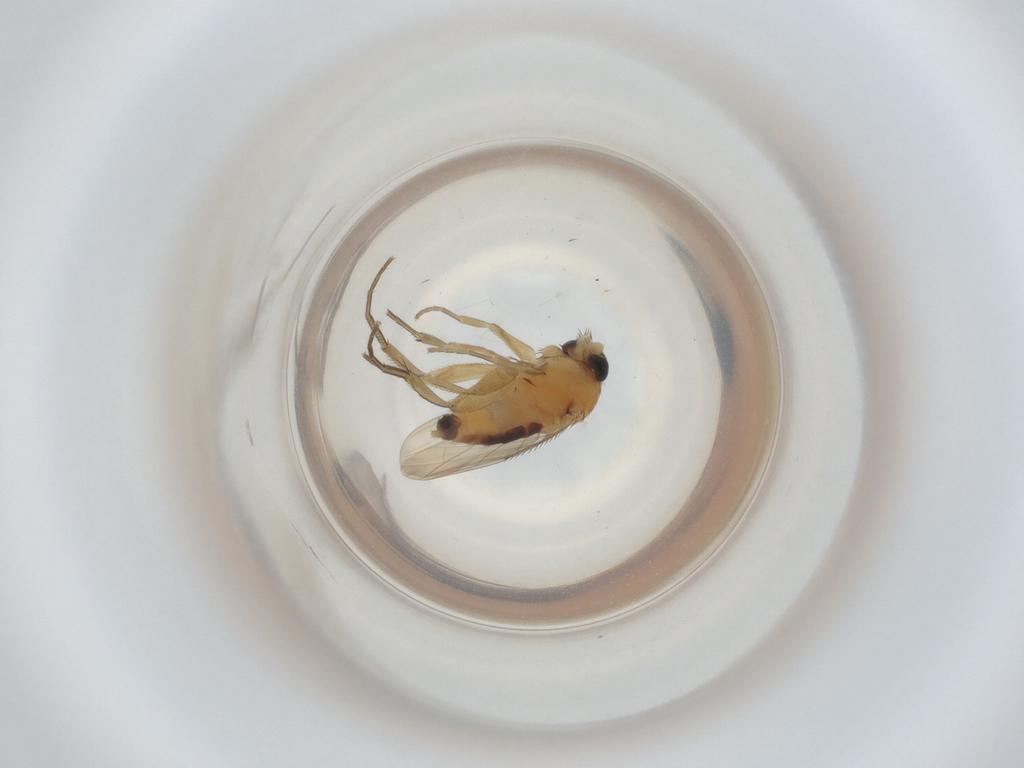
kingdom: Animalia
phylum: Arthropoda
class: Insecta
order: Diptera
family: Phoridae
